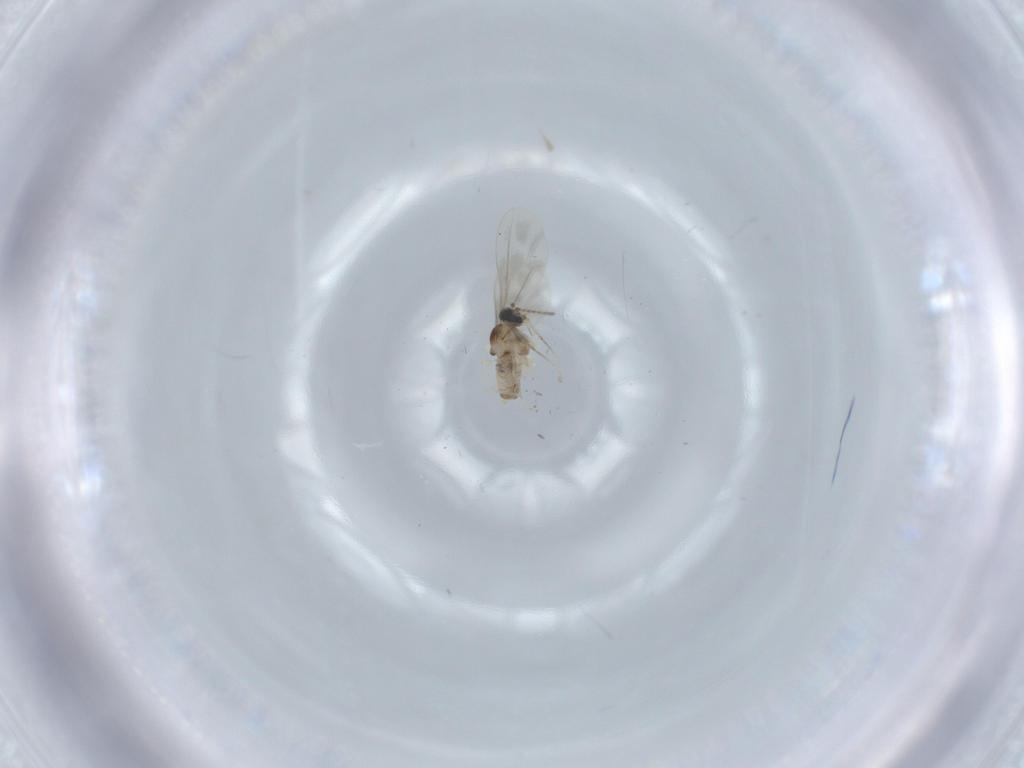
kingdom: Animalia
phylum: Arthropoda
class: Insecta
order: Diptera
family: Cecidomyiidae
